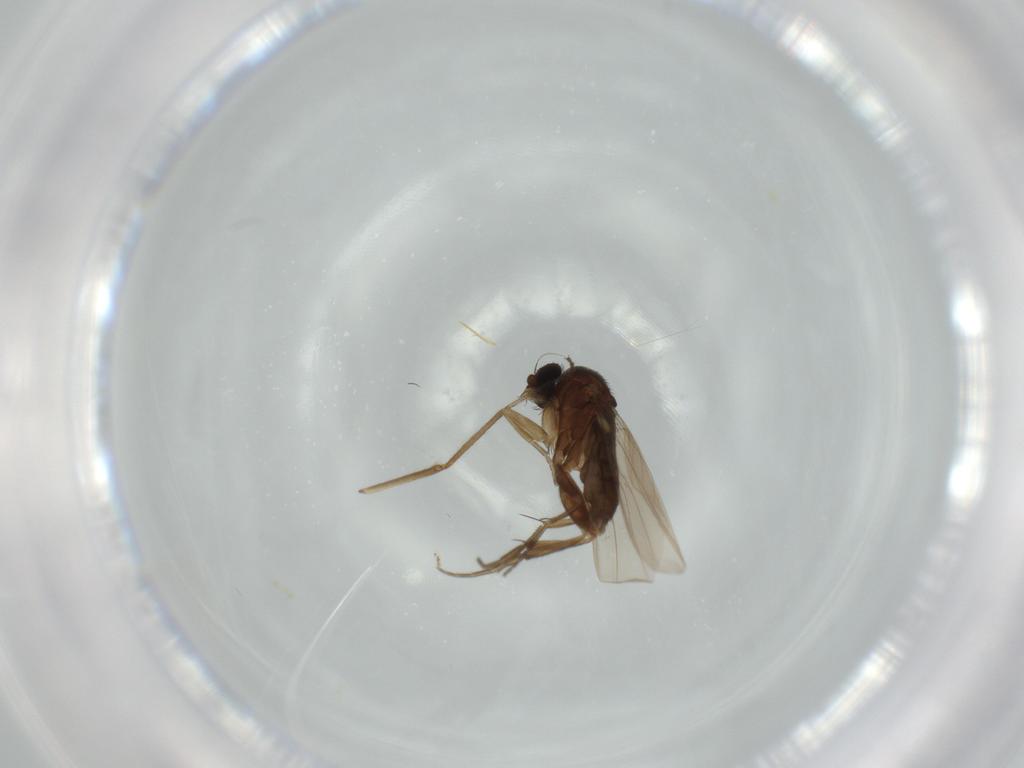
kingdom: Animalia
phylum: Arthropoda
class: Insecta
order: Diptera
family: Phoridae
